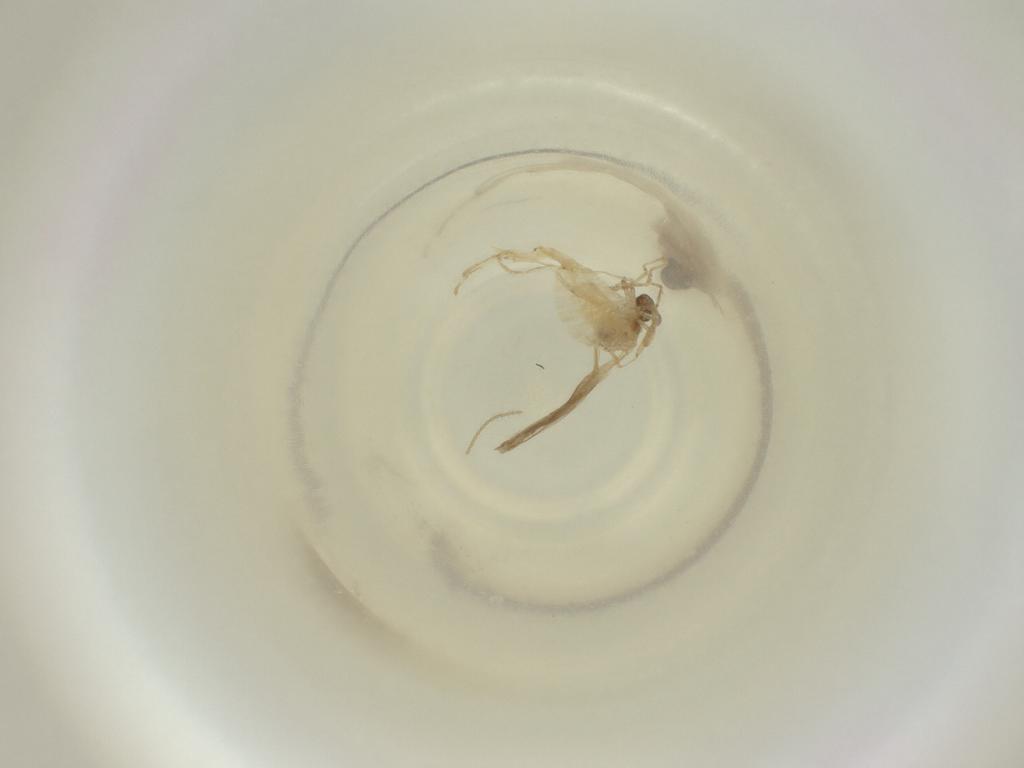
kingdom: Animalia
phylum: Arthropoda
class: Insecta
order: Diptera
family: Cecidomyiidae
